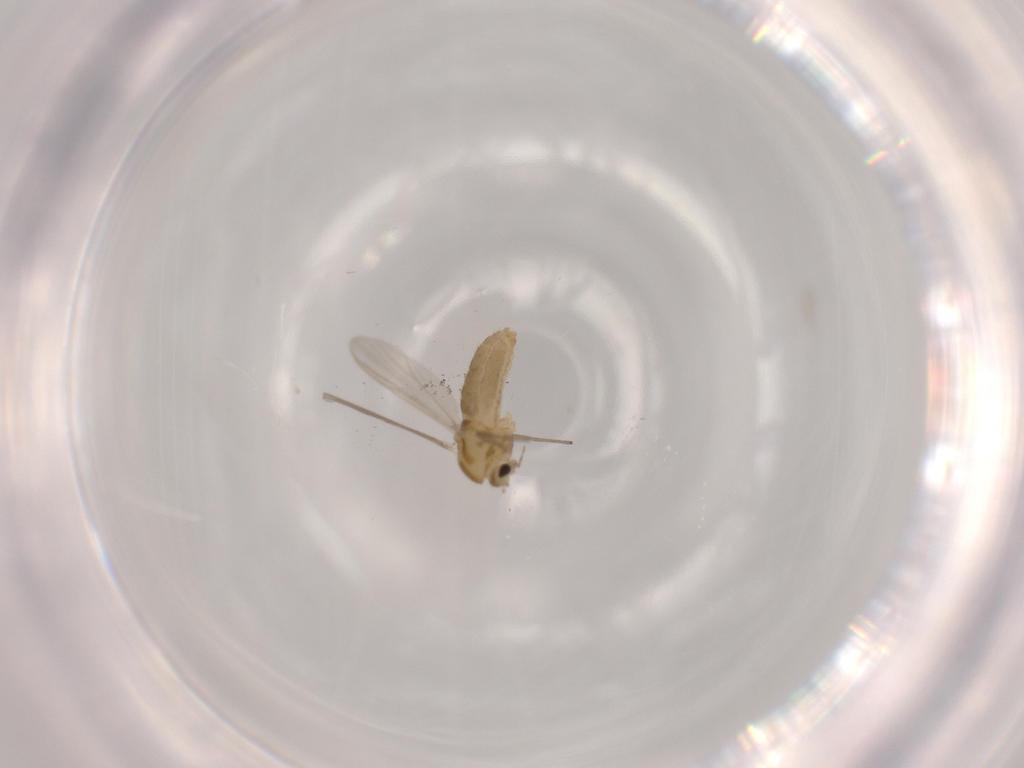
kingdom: Animalia
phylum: Arthropoda
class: Insecta
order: Diptera
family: Chironomidae
